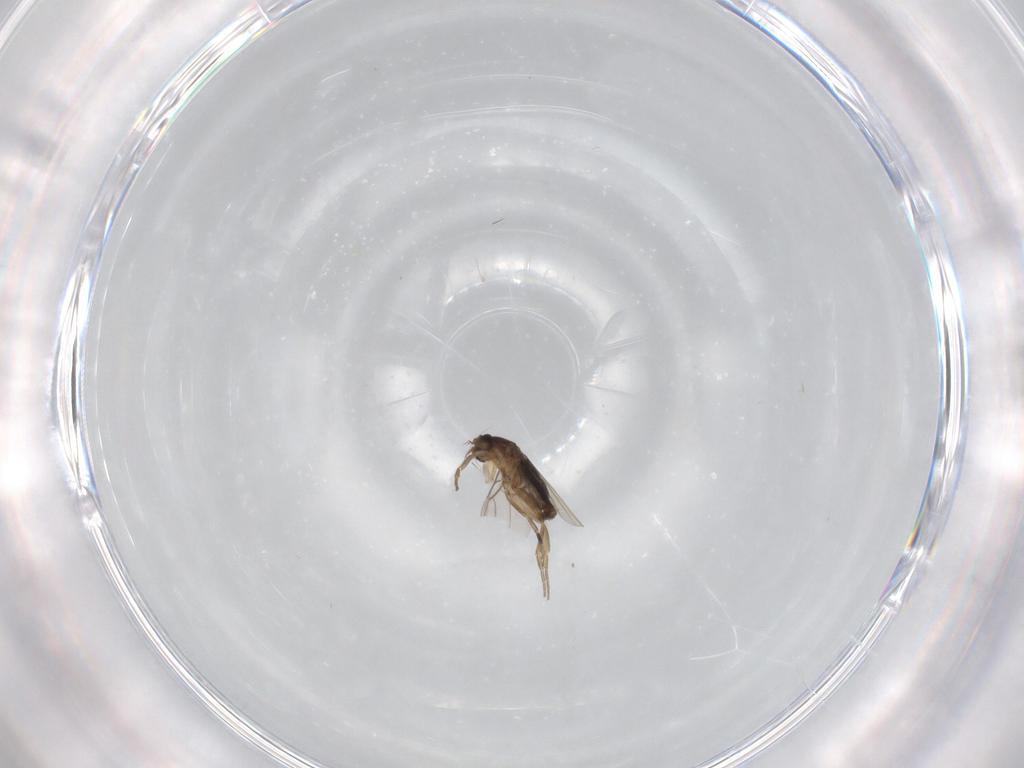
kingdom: Animalia
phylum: Arthropoda
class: Insecta
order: Diptera
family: Phoridae
